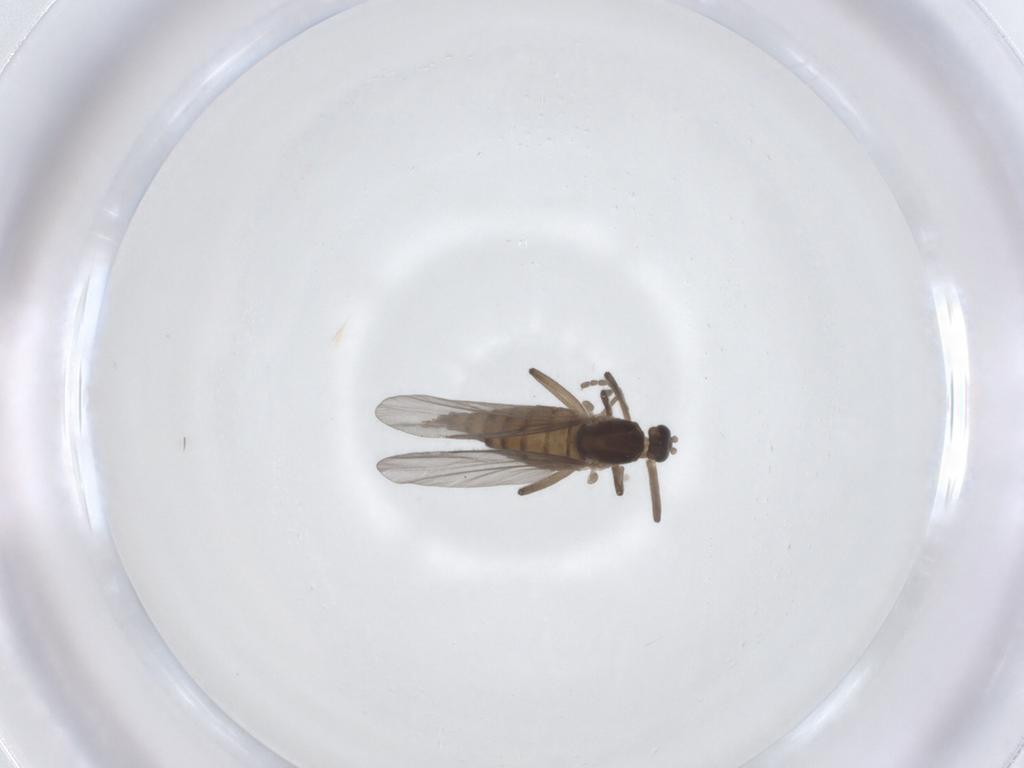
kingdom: Animalia
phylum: Arthropoda
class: Insecta
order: Diptera
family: Cecidomyiidae
